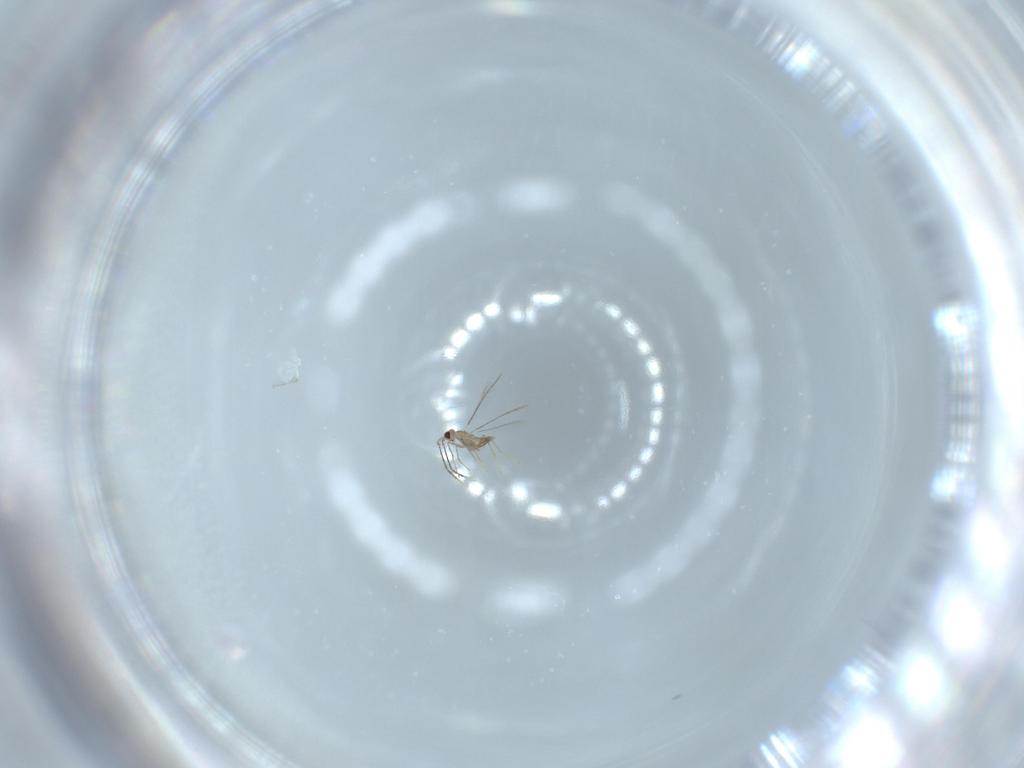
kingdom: Animalia
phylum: Arthropoda
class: Insecta
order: Hymenoptera
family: Mymaridae
